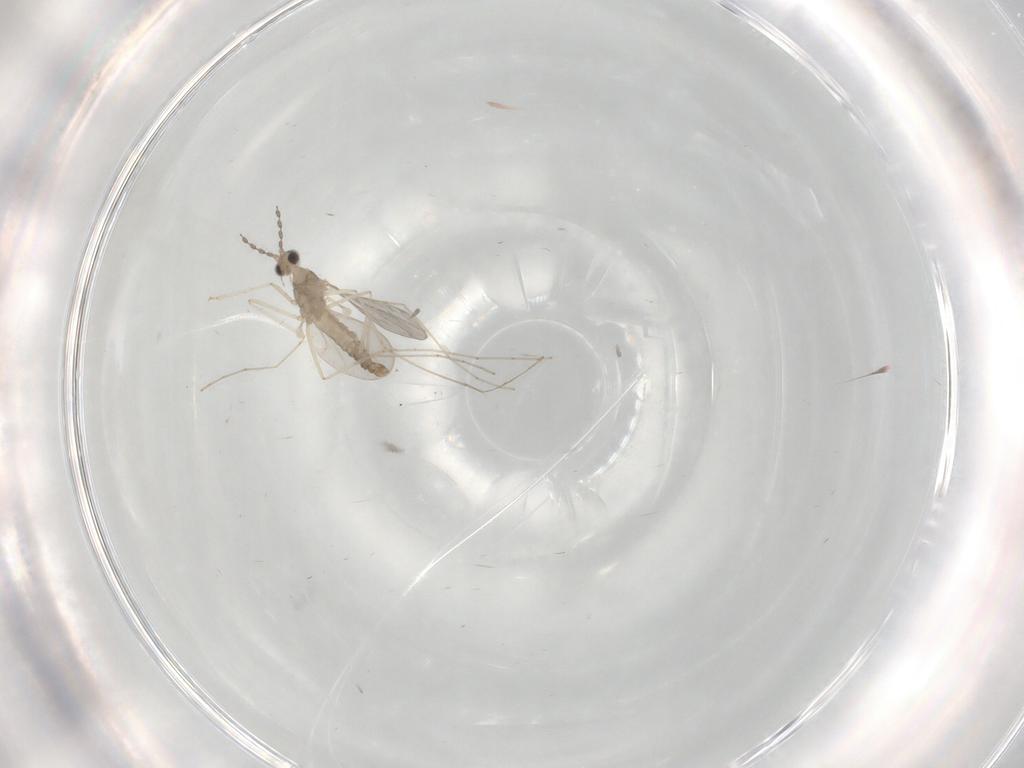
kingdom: Animalia
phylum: Arthropoda
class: Insecta
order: Diptera
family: Cecidomyiidae
